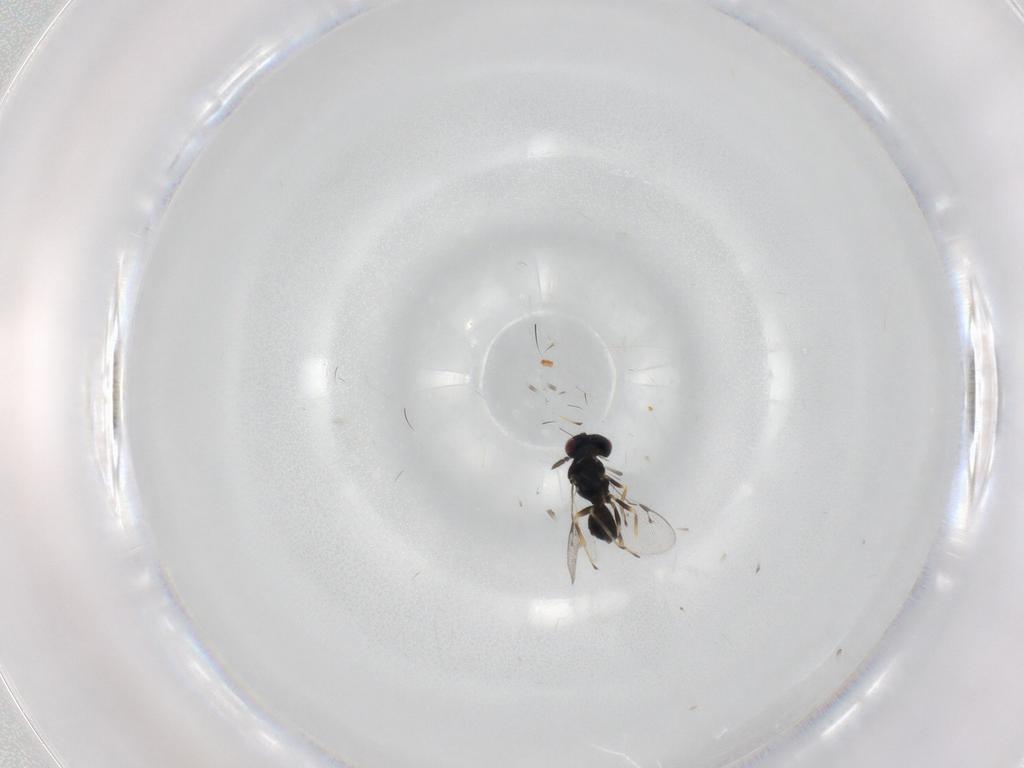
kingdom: Animalia
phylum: Arthropoda
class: Insecta
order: Hymenoptera
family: Pteromalidae
